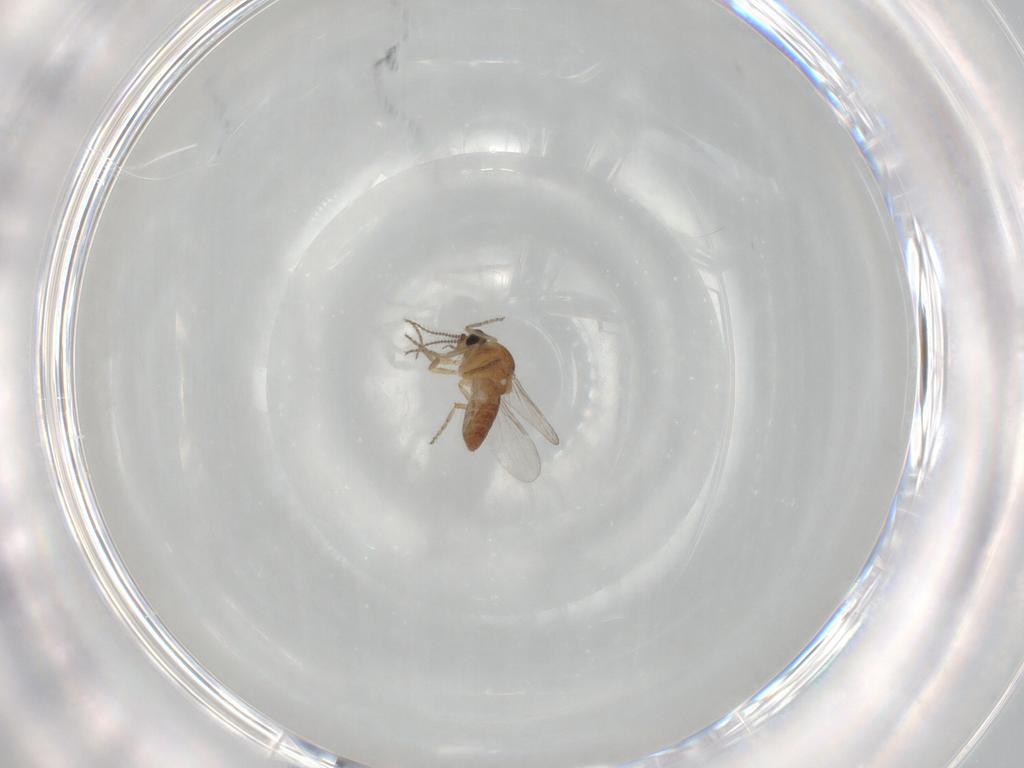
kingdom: Animalia
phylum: Arthropoda
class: Insecta
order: Diptera
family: Ceratopogonidae
